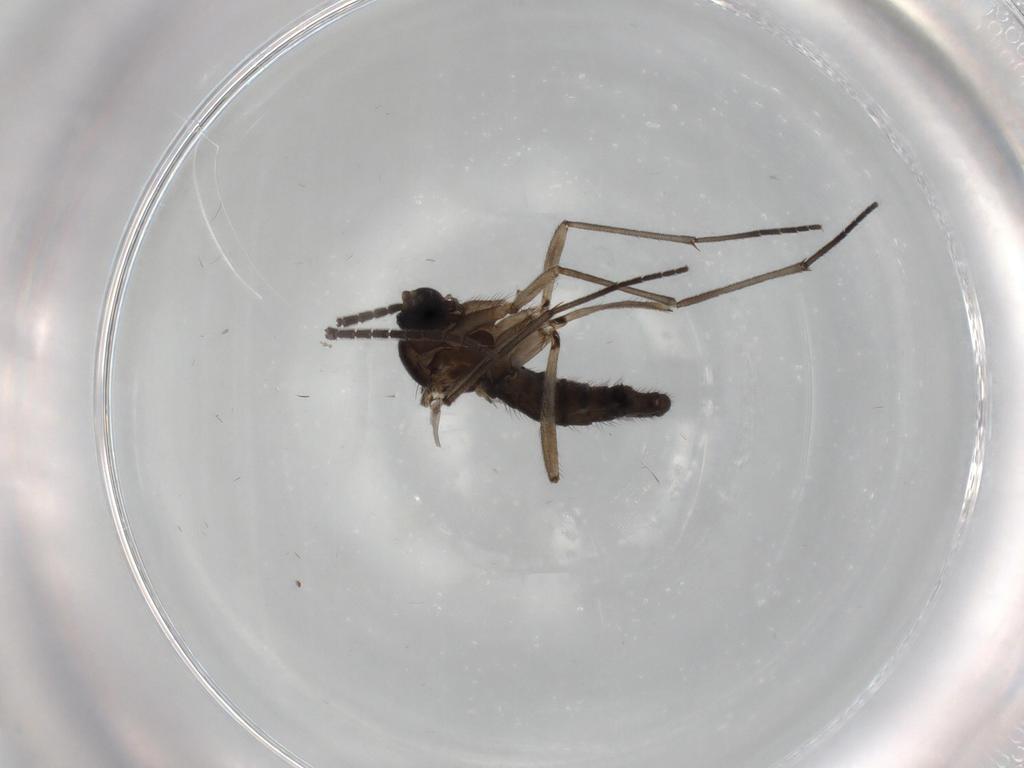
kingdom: Animalia
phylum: Arthropoda
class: Insecta
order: Diptera
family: Sciaridae
